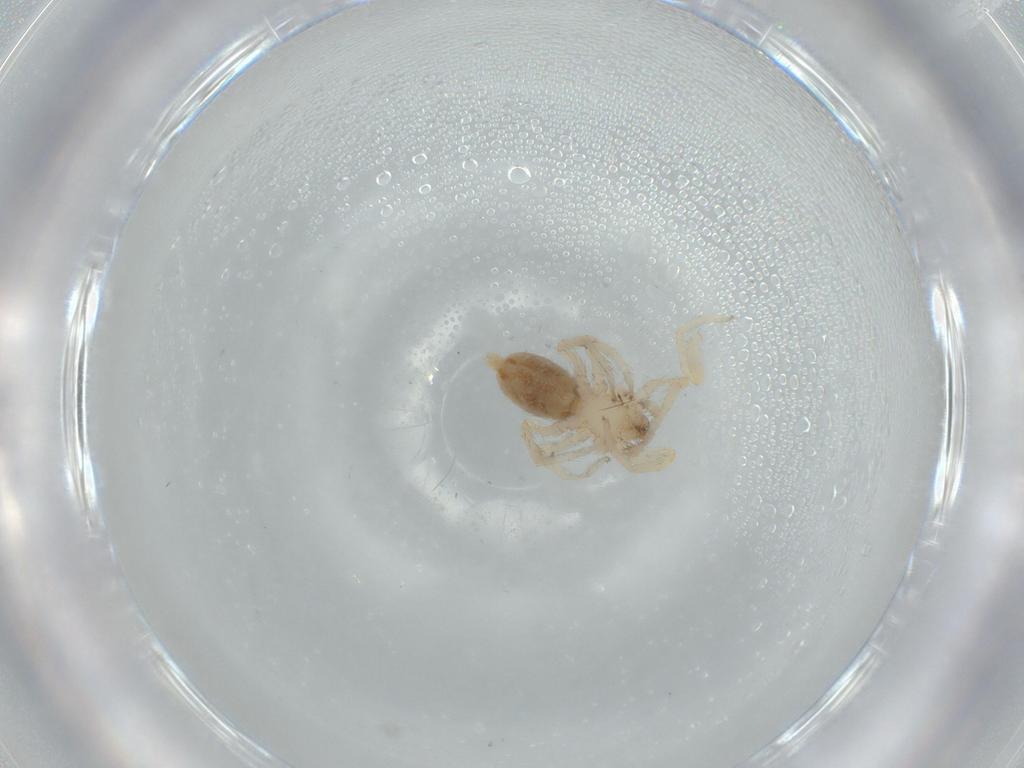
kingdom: Animalia
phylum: Arthropoda
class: Arachnida
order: Araneae
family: Oonopidae
